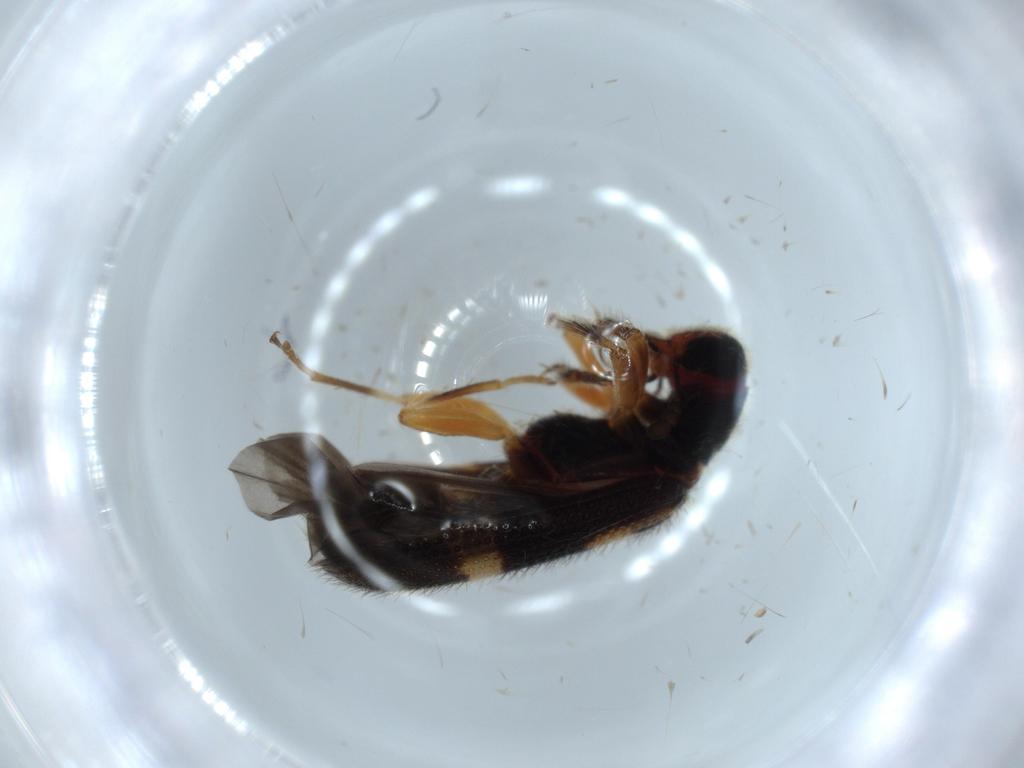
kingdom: Animalia
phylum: Arthropoda
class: Insecta
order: Coleoptera
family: Cleridae
